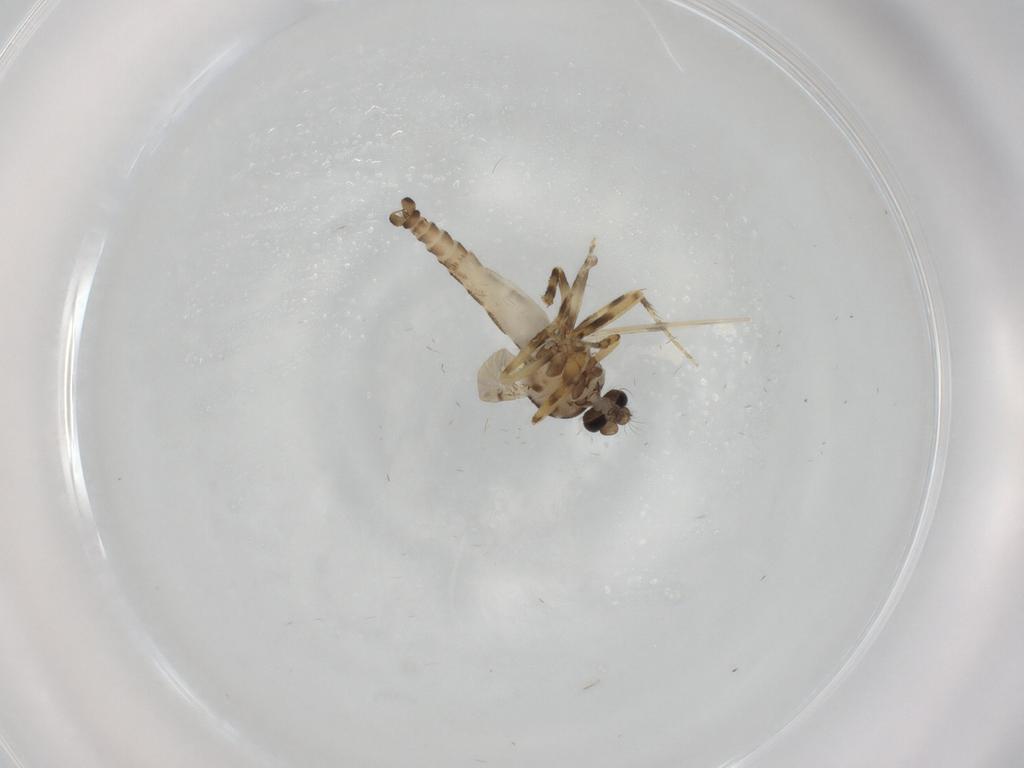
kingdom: Animalia
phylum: Arthropoda
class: Insecta
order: Diptera
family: Ceratopogonidae
